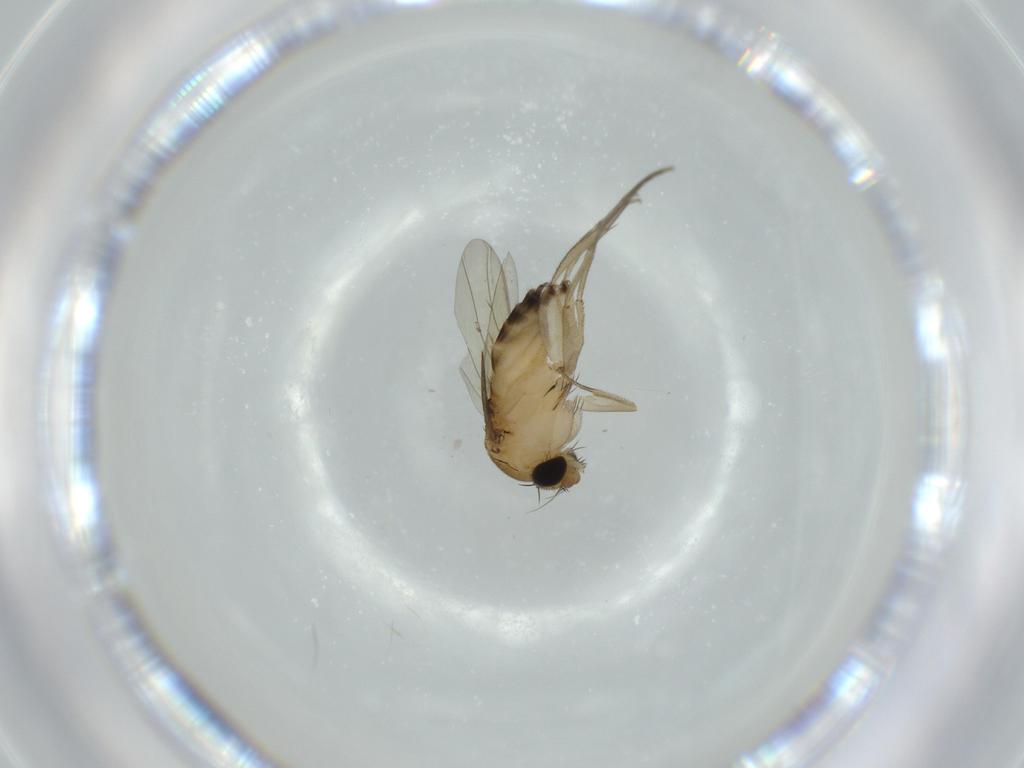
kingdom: Animalia
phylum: Arthropoda
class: Insecta
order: Diptera
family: Phoridae
